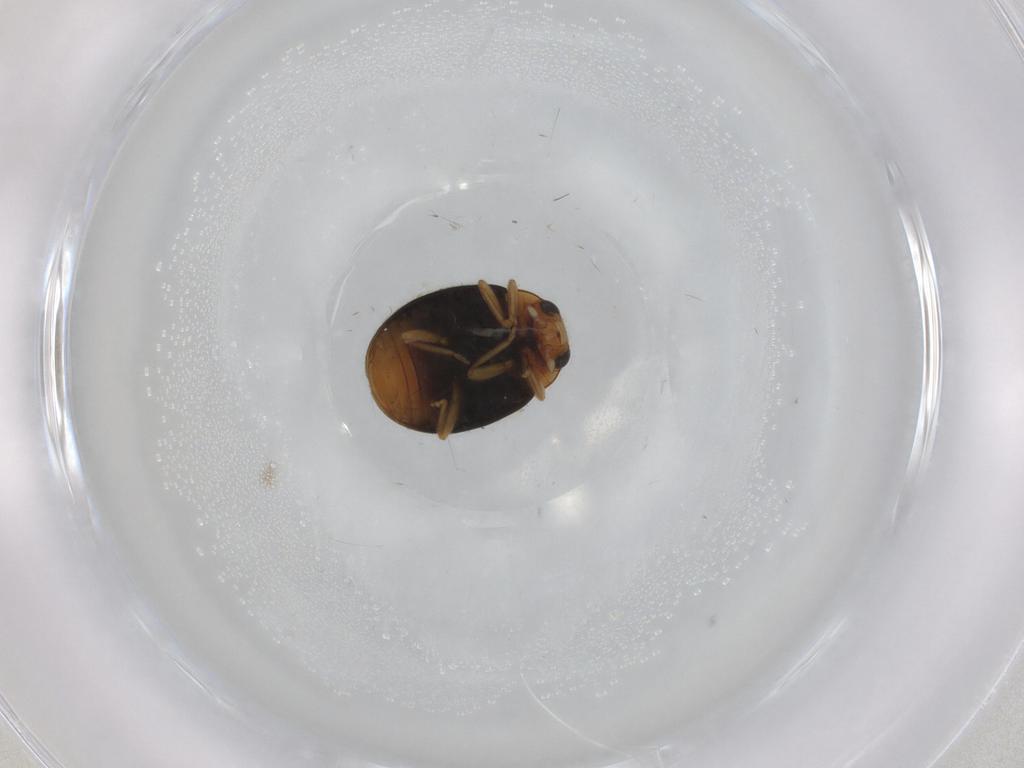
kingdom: Animalia
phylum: Arthropoda
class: Insecta
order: Coleoptera
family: Coccinellidae
